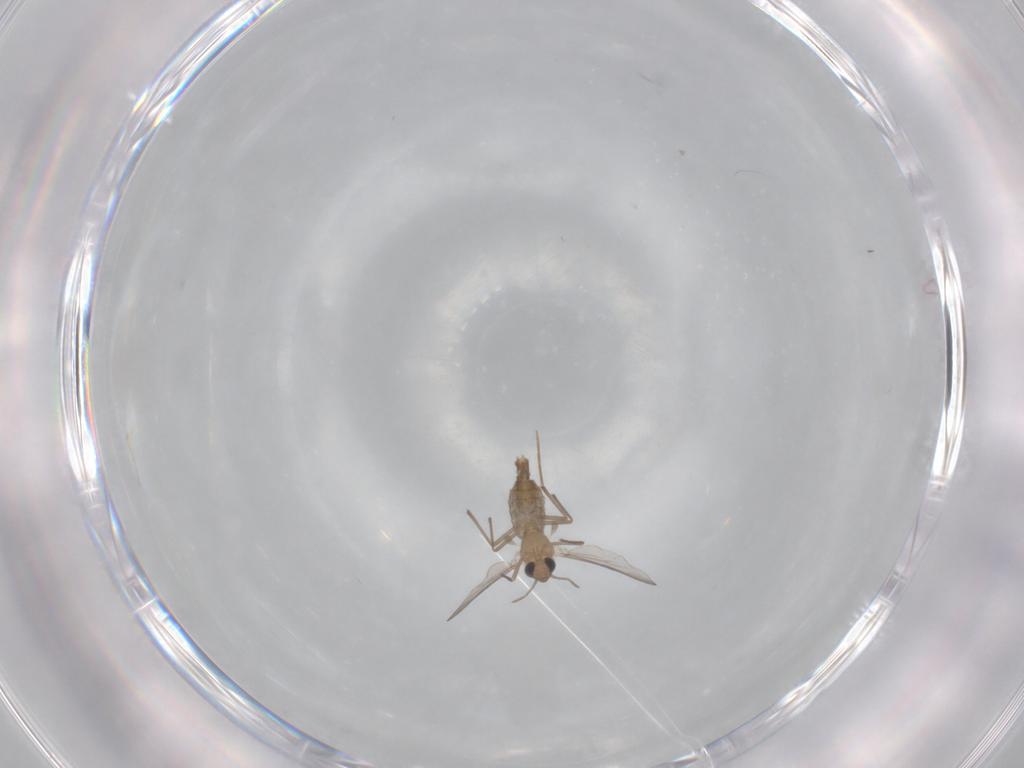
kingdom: Animalia
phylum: Arthropoda
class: Insecta
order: Diptera
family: Chironomidae
